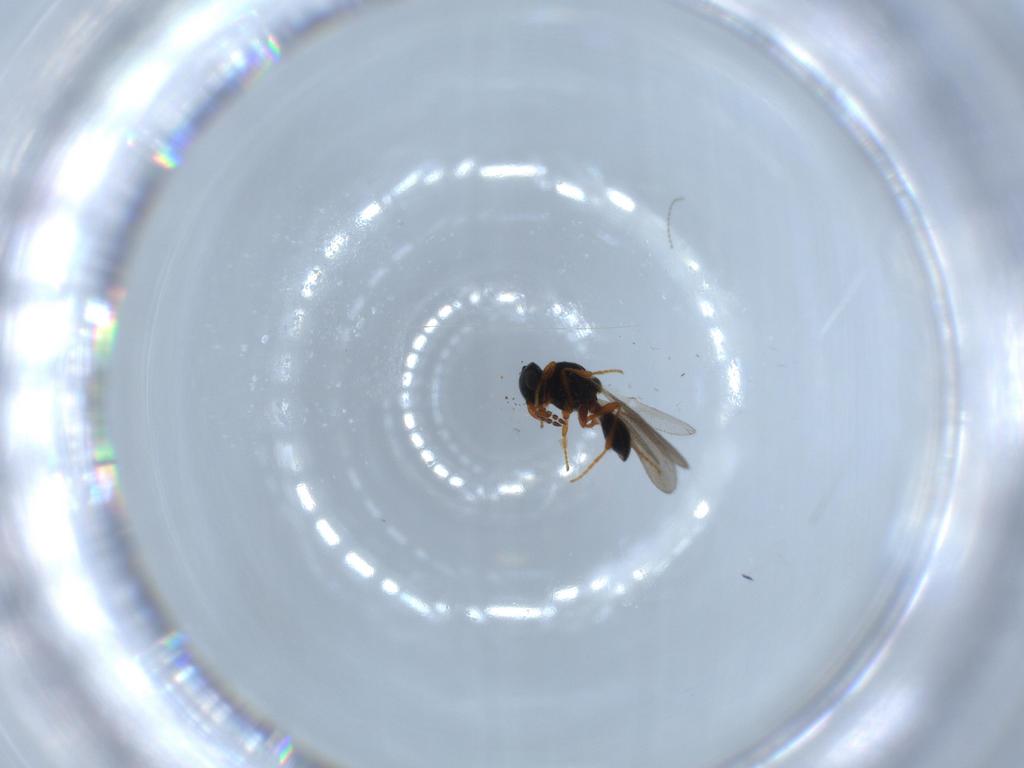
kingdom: Animalia
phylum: Arthropoda
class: Insecta
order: Hymenoptera
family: Platygastridae
